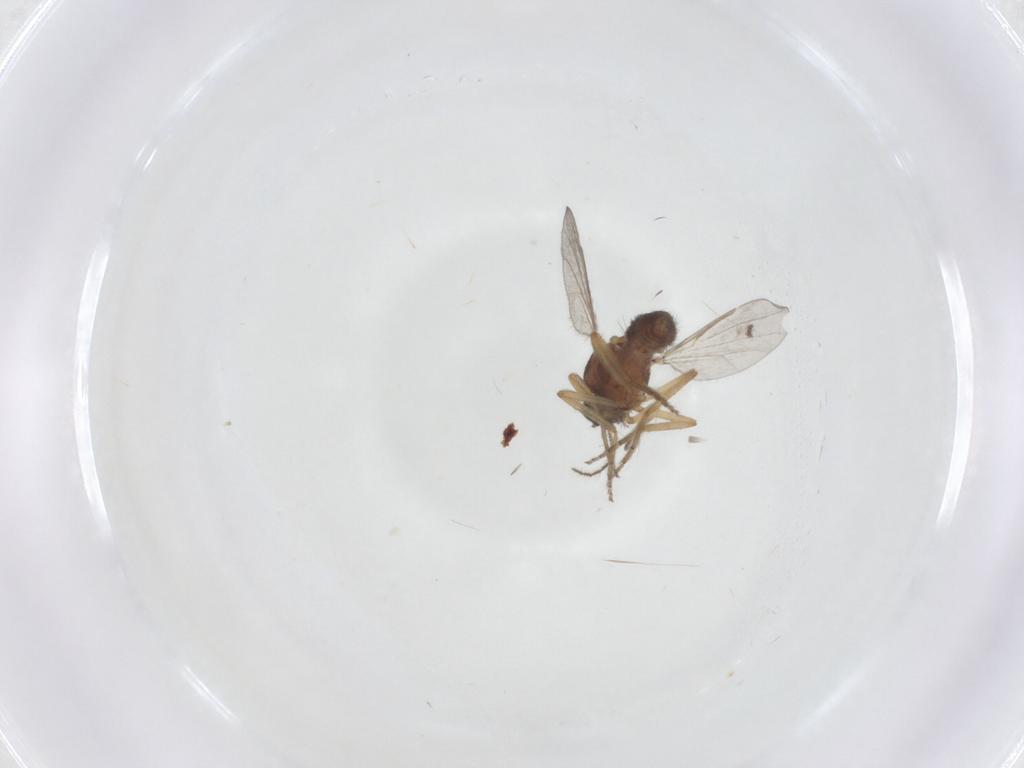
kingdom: Animalia
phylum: Arthropoda
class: Insecta
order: Diptera
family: Ceratopogonidae
